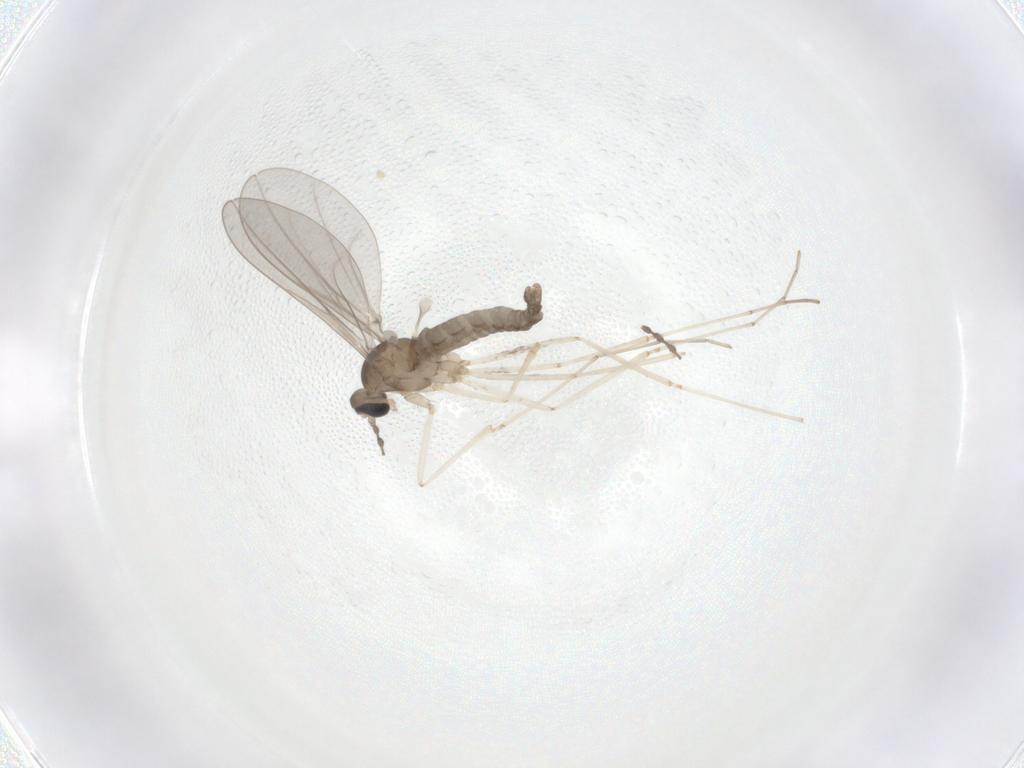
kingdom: Animalia
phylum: Arthropoda
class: Insecta
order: Diptera
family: Cecidomyiidae
